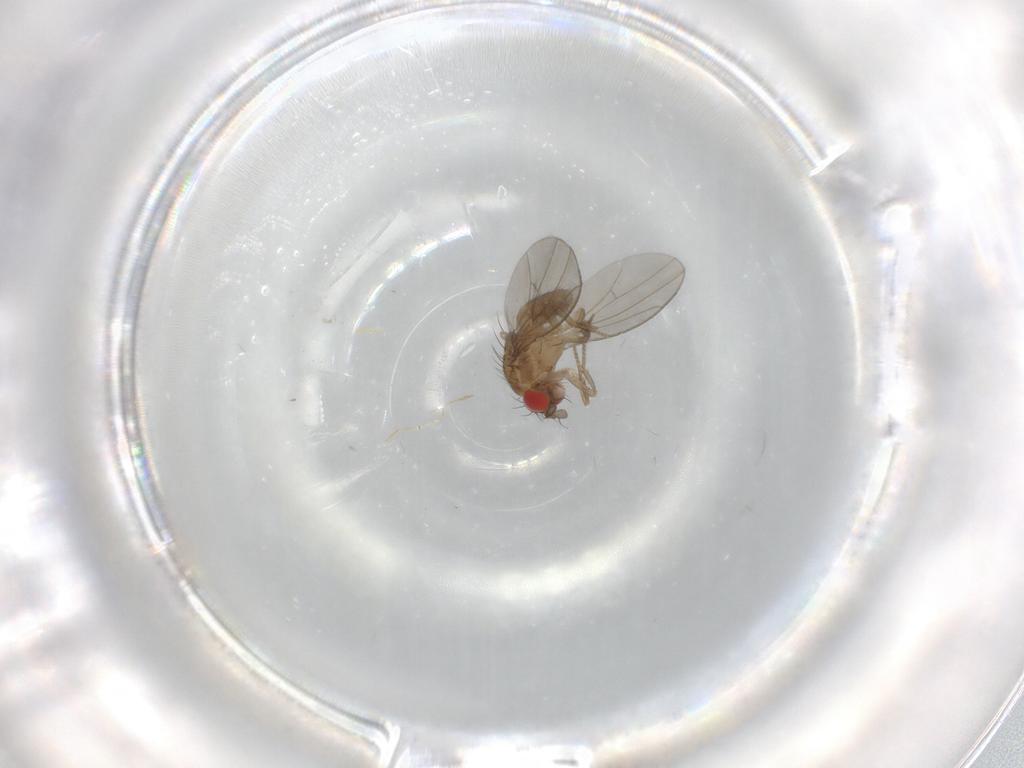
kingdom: Animalia
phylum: Arthropoda
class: Insecta
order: Diptera
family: Drosophilidae
